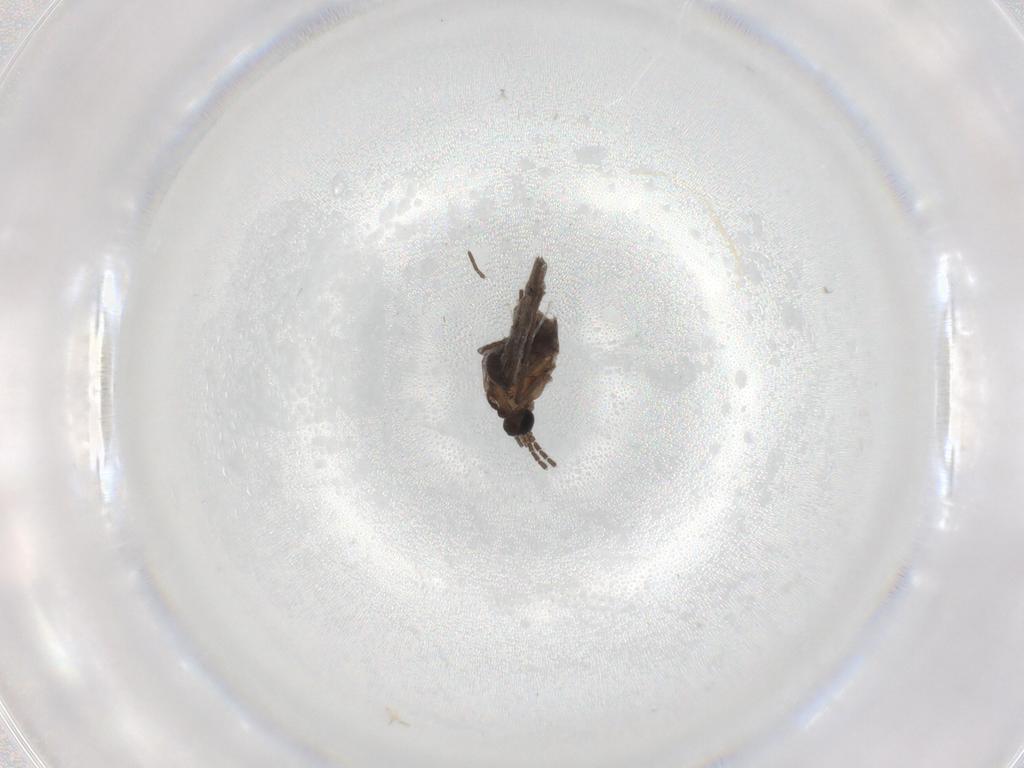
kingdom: Animalia
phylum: Arthropoda
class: Insecta
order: Diptera
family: Cecidomyiidae
